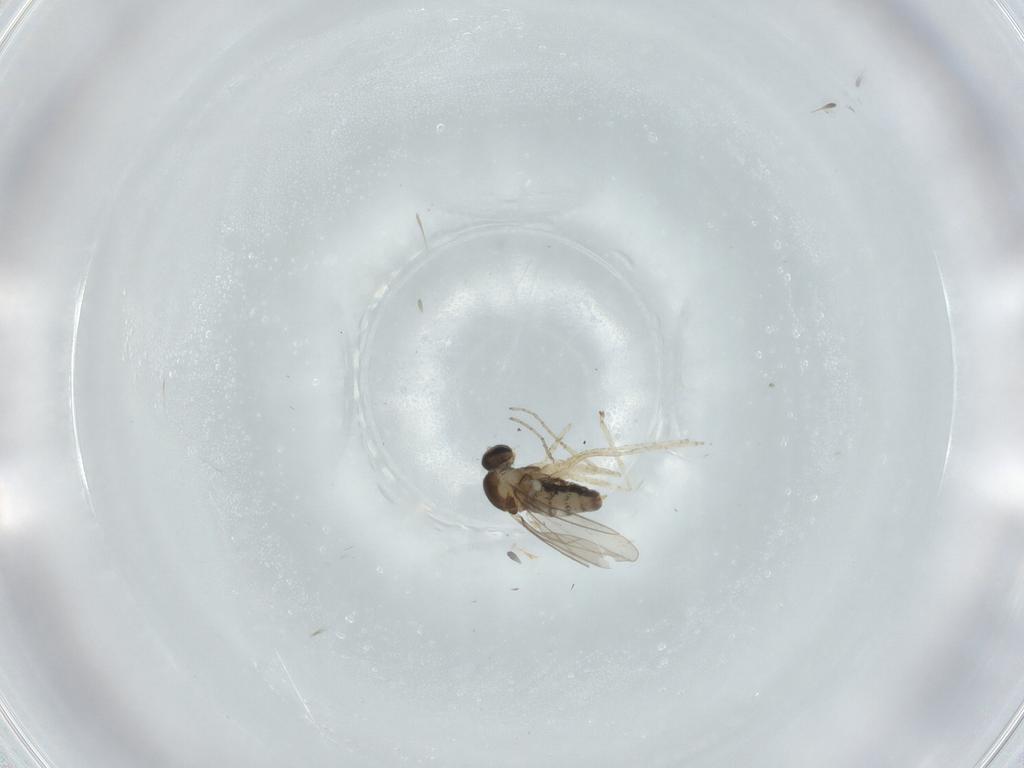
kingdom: Animalia
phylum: Arthropoda
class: Insecta
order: Diptera
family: Cecidomyiidae
